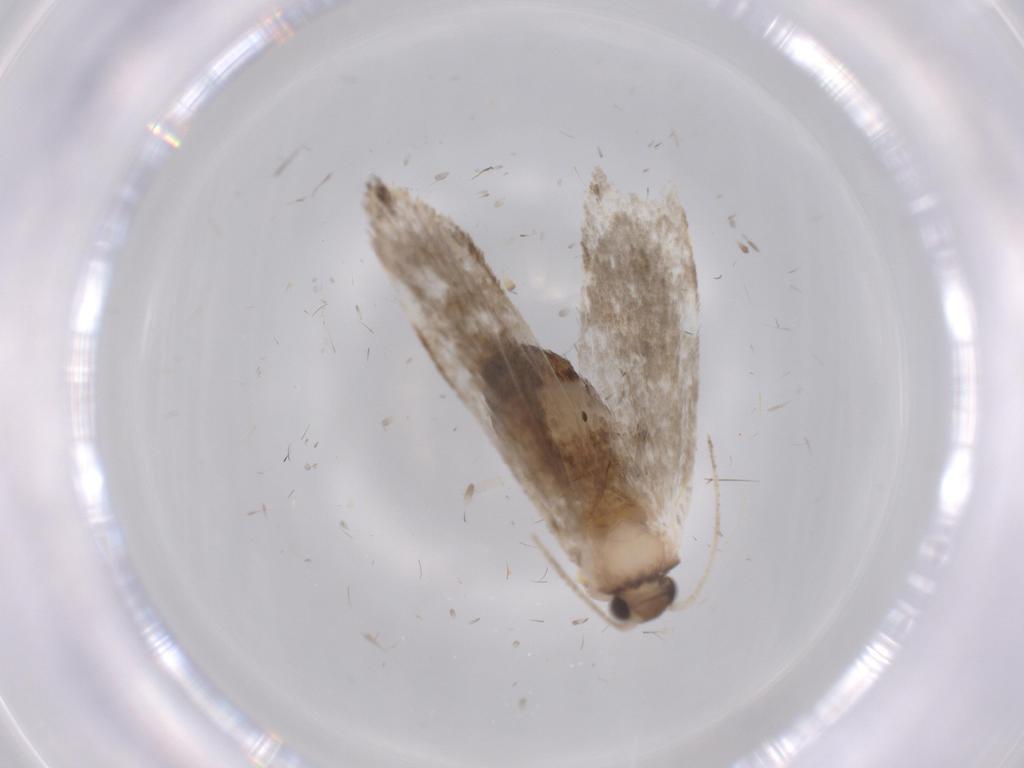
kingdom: Animalia
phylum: Arthropoda
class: Insecta
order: Lepidoptera
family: Tineidae
